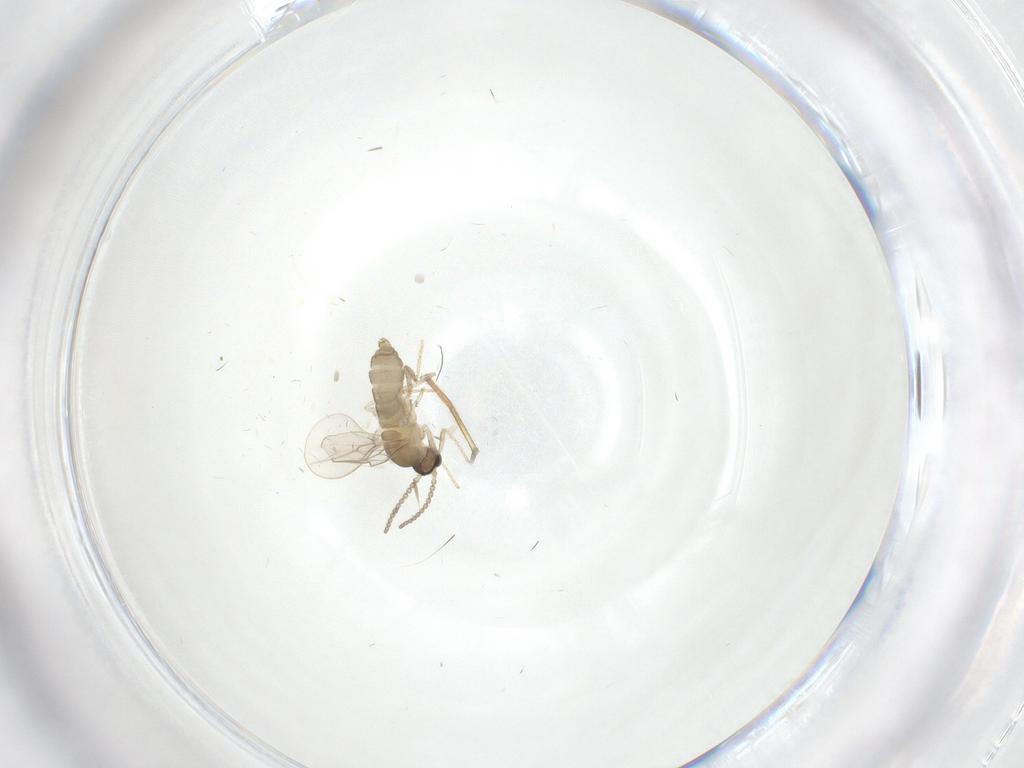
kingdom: Animalia
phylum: Arthropoda
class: Insecta
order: Diptera
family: Cecidomyiidae
